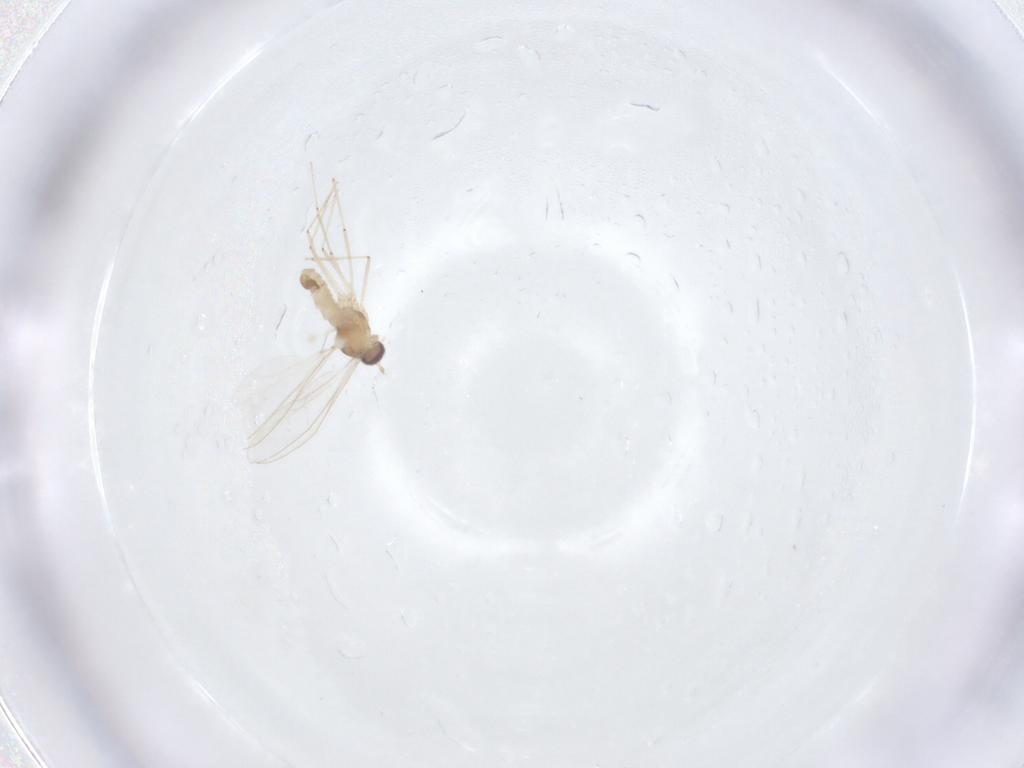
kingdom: Animalia
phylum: Arthropoda
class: Insecta
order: Diptera
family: Cecidomyiidae
